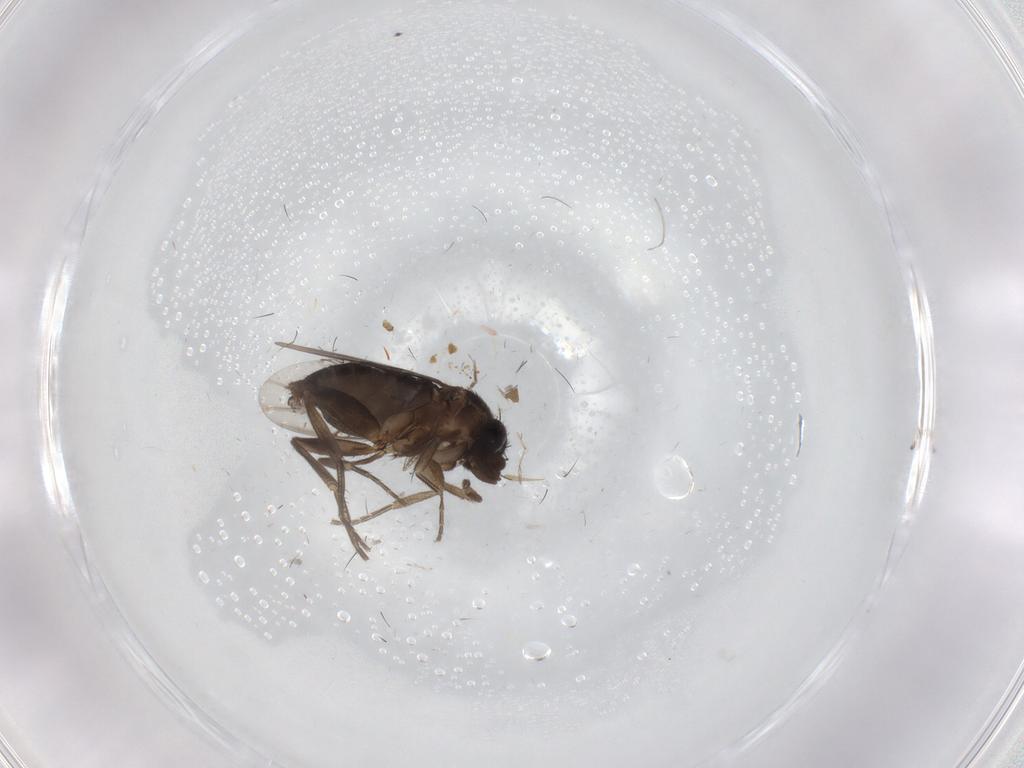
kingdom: Animalia
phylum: Arthropoda
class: Insecta
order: Diptera
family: Phoridae
